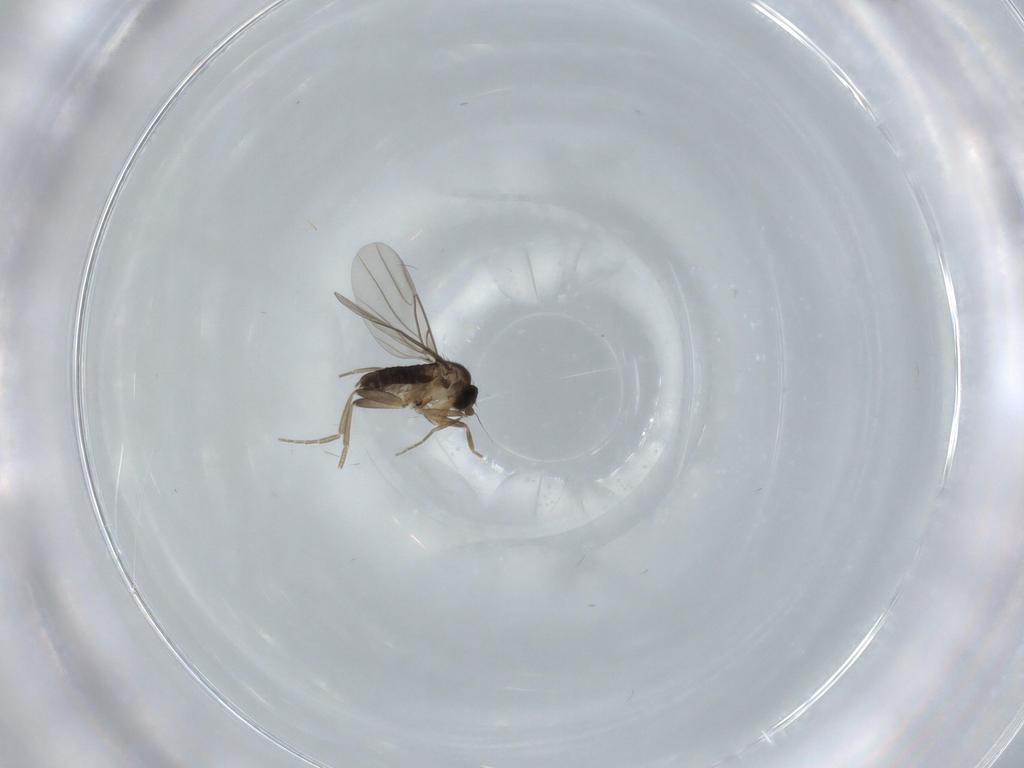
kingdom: Animalia
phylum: Arthropoda
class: Insecta
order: Diptera
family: Phoridae
